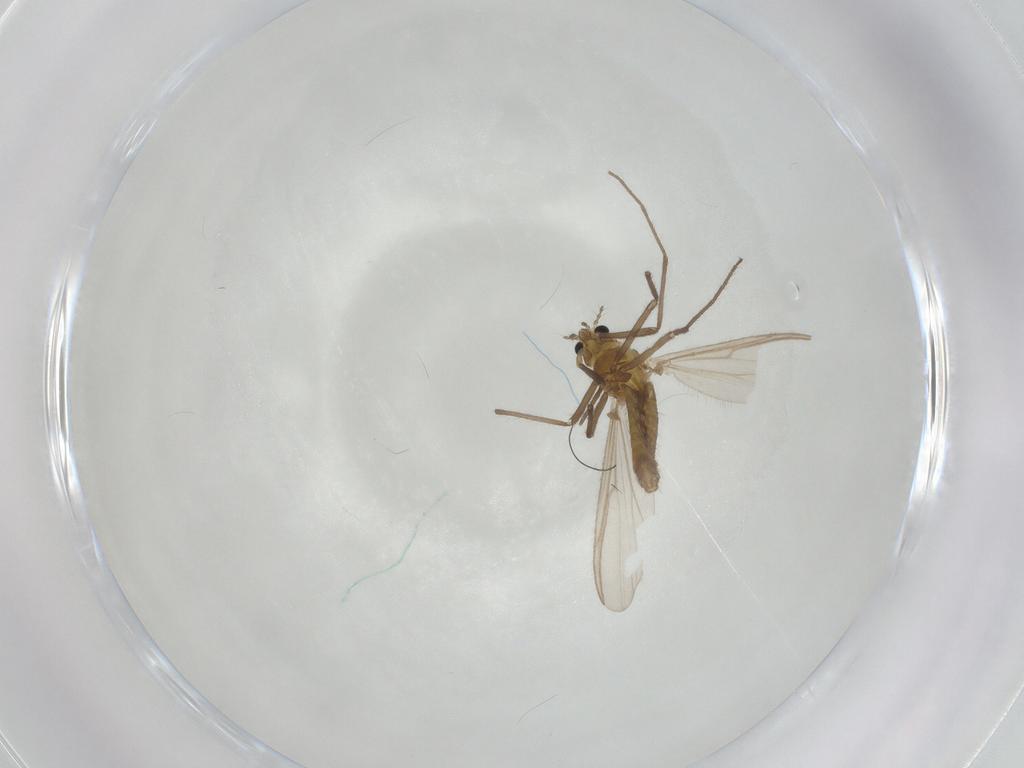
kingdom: Animalia
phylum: Arthropoda
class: Insecta
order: Diptera
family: Chironomidae
